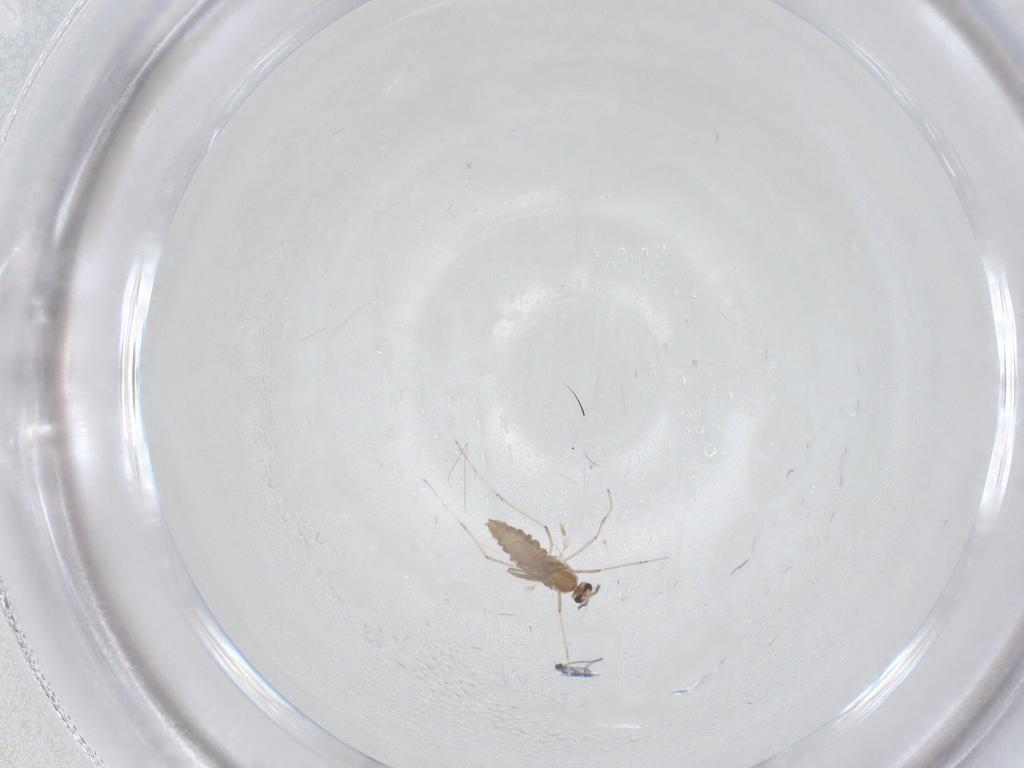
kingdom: Animalia
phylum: Arthropoda
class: Insecta
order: Diptera
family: Cecidomyiidae
